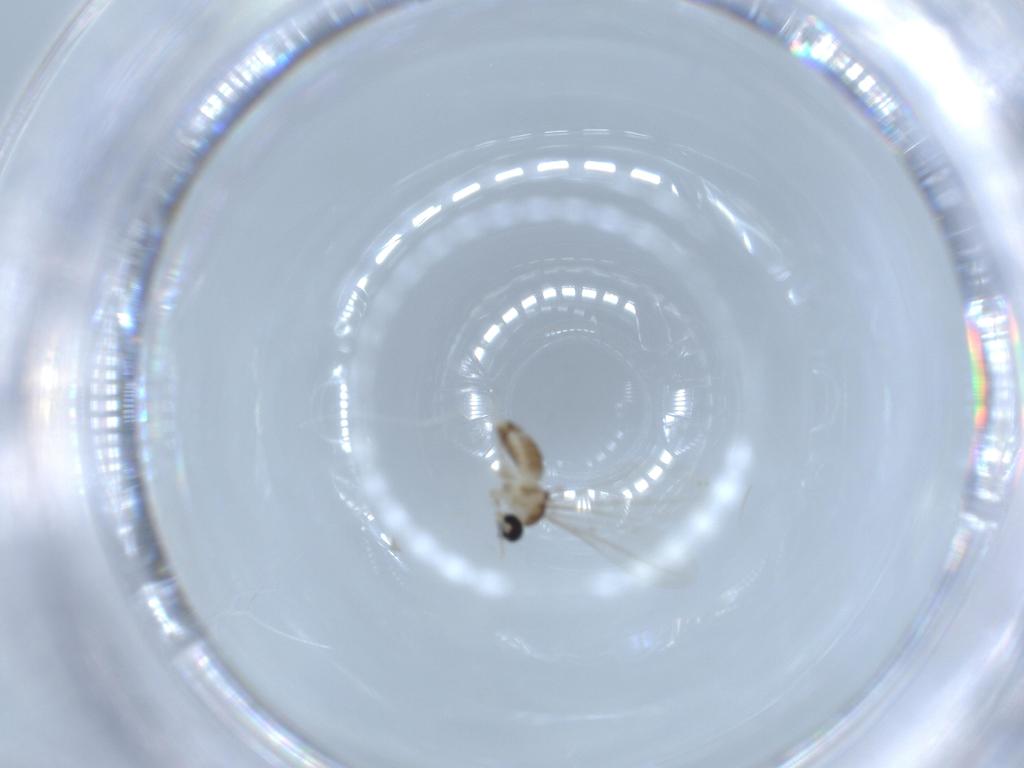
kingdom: Animalia
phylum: Arthropoda
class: Insecta
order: Diptera
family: Cecidomyiidae
